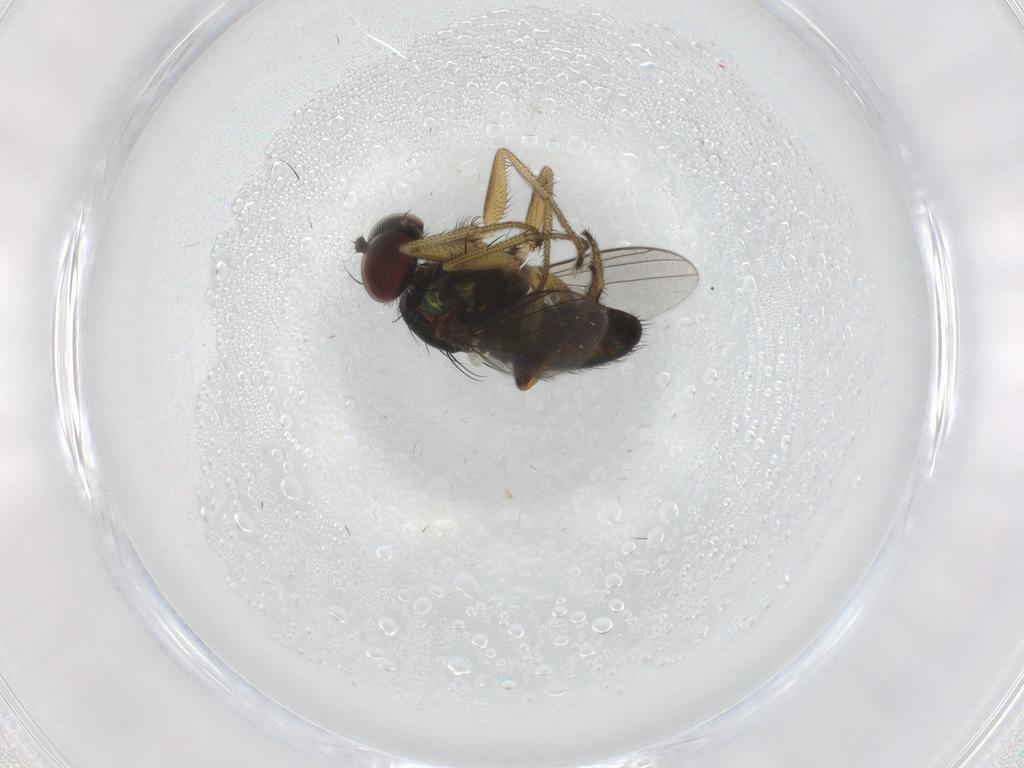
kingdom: Animalia
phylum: Arthropoda
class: Insecta
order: Diptera
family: Dolichopodidae
